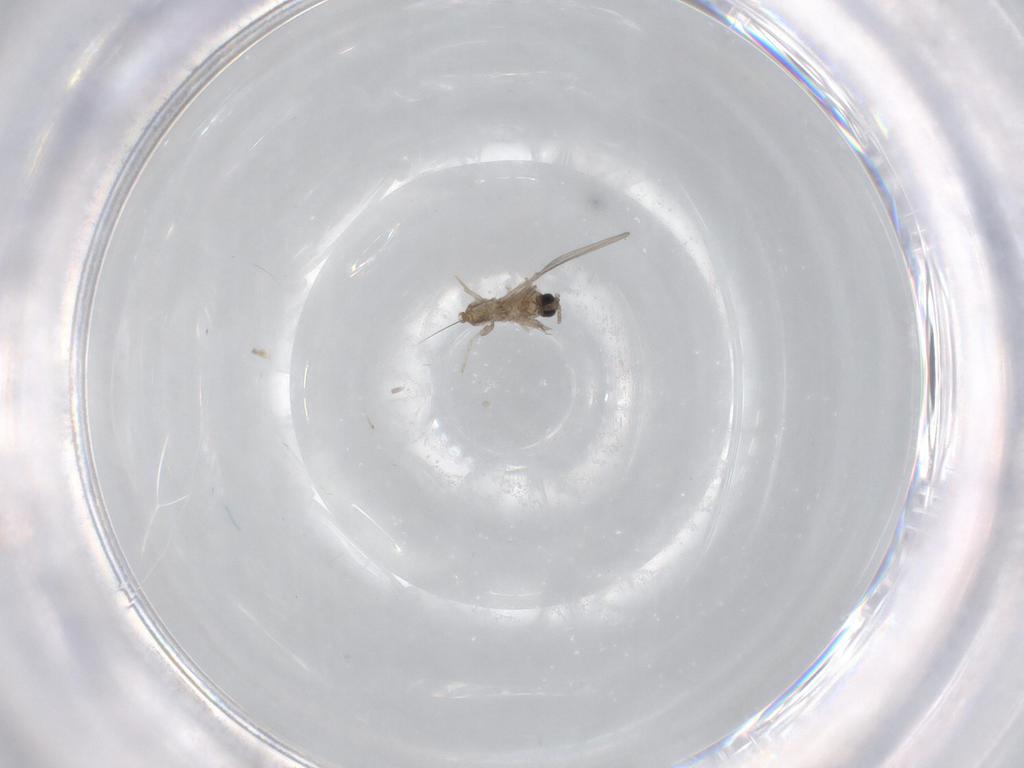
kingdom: Animalia
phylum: Arthropoda
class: Insecta
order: Diptera
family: Cecidomyiidae
